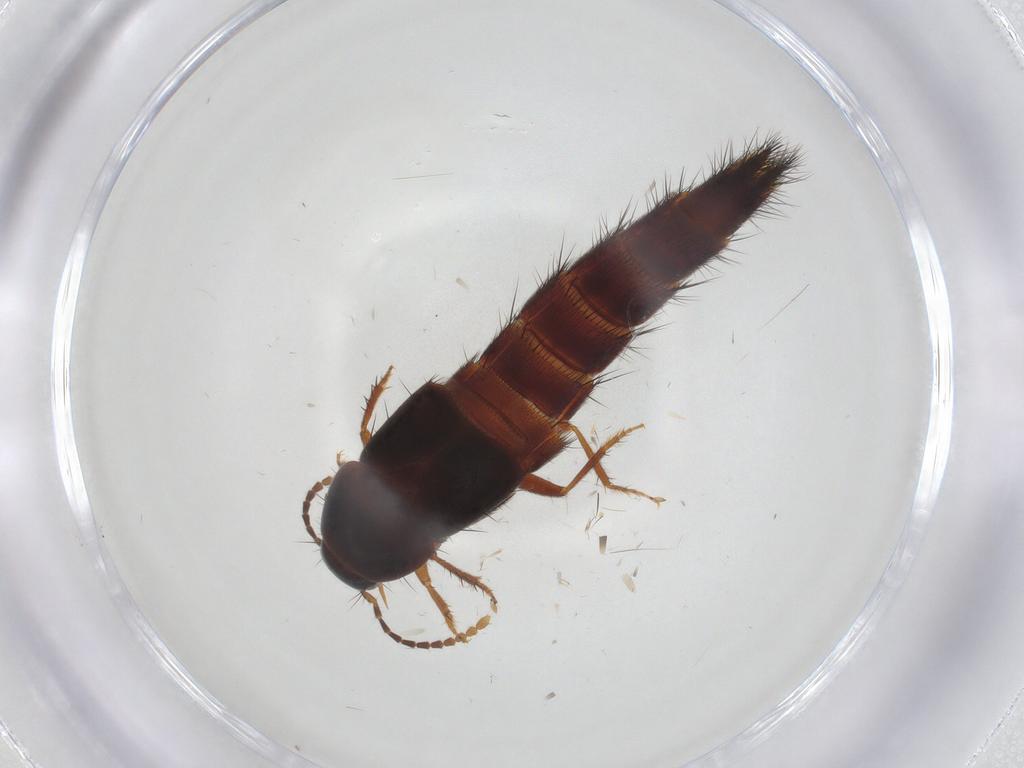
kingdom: Animalia
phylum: Arthropoda
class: Insecta
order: Coleoptera
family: Staphylinidae
